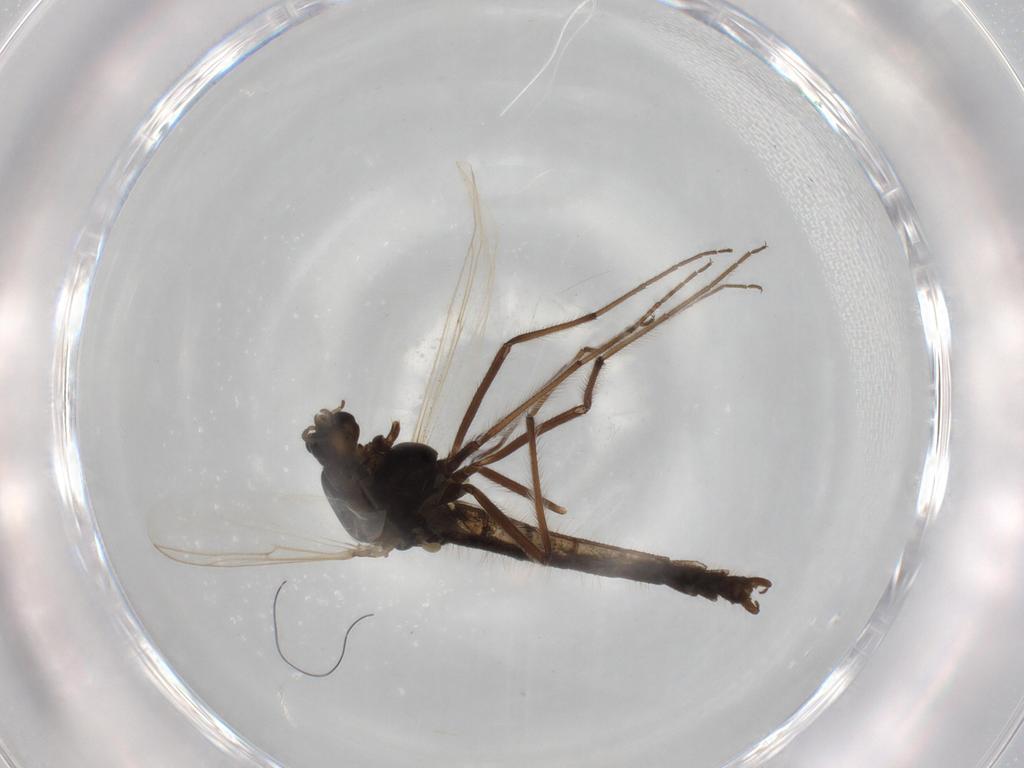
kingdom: Animalia
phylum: Arthropoda
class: Insecta
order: Diptera
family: Chironomidae
